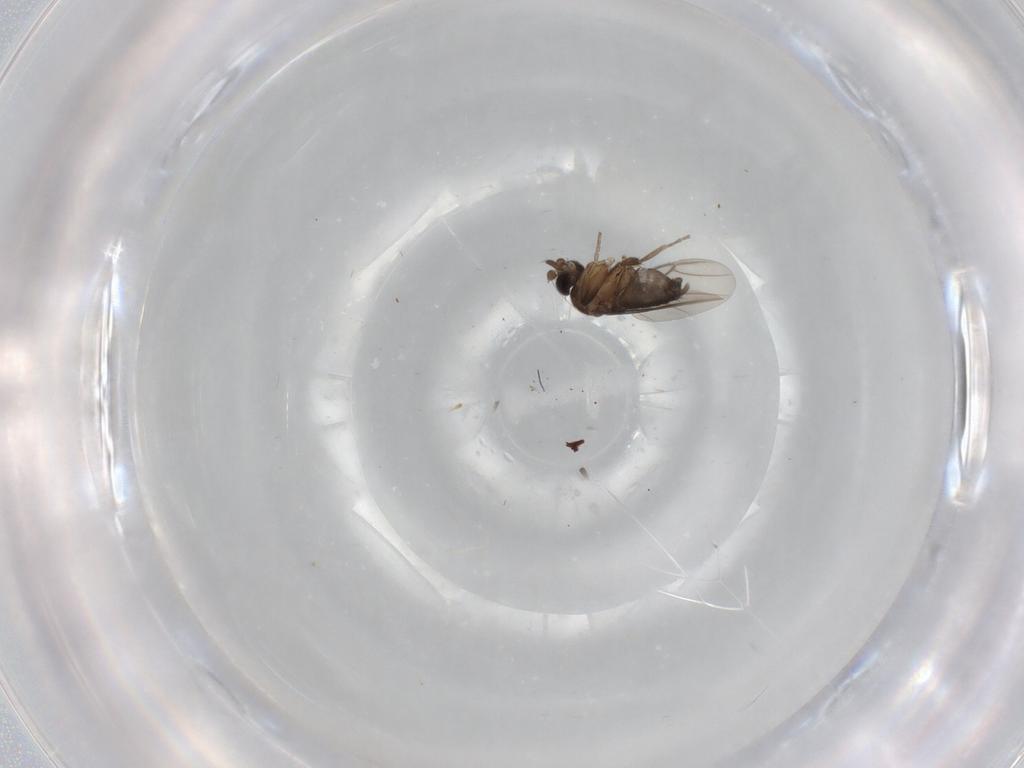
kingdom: Animalia
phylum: Arthropoda
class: Insecta
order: Diptera
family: Phoridae
